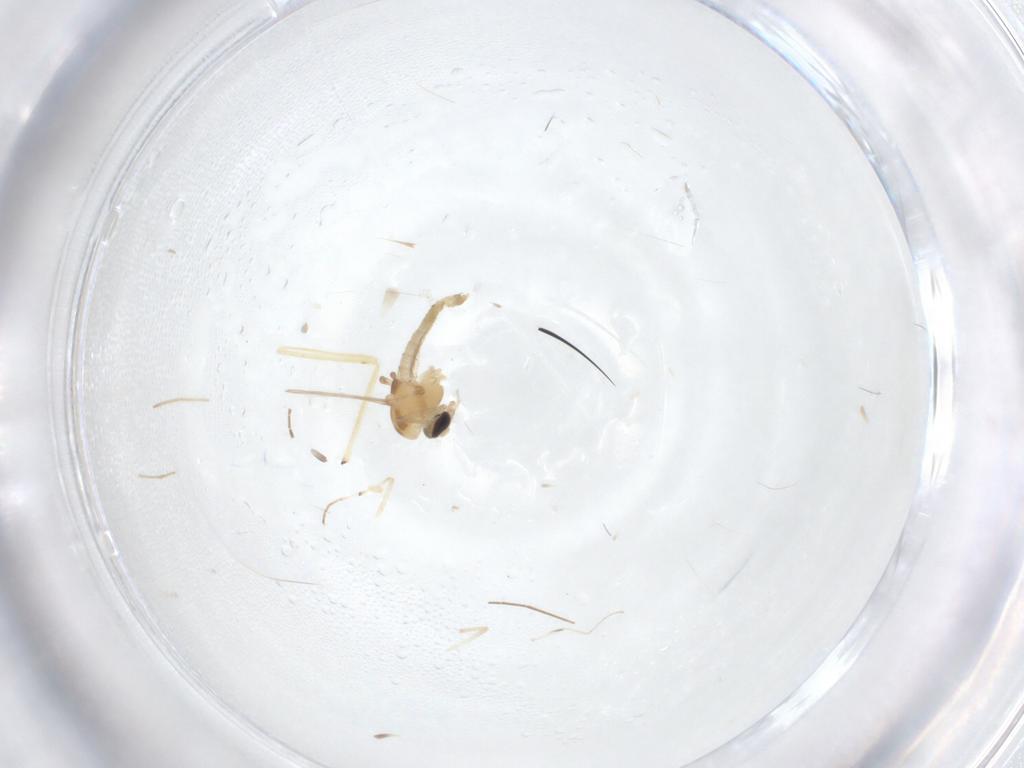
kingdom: Animalia
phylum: Arthropoda
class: Insecta
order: Diptera
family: Chironomidae
